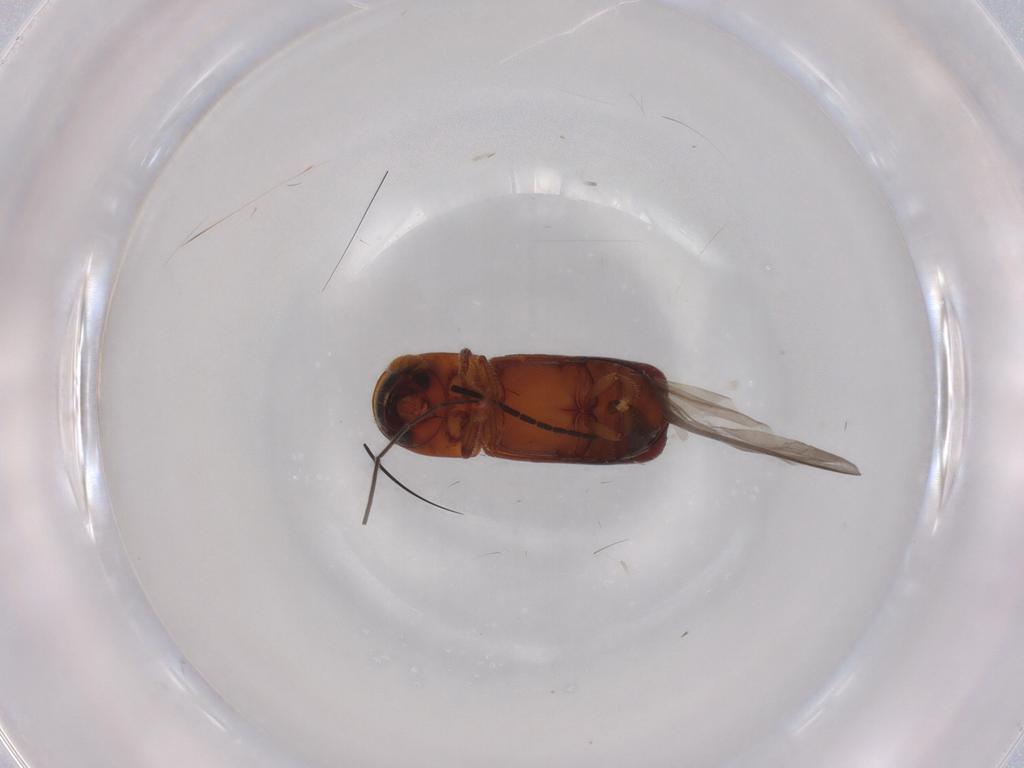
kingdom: Animalia
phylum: Arthropoda
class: Insecta
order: Coleoptera
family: Curculionidae
